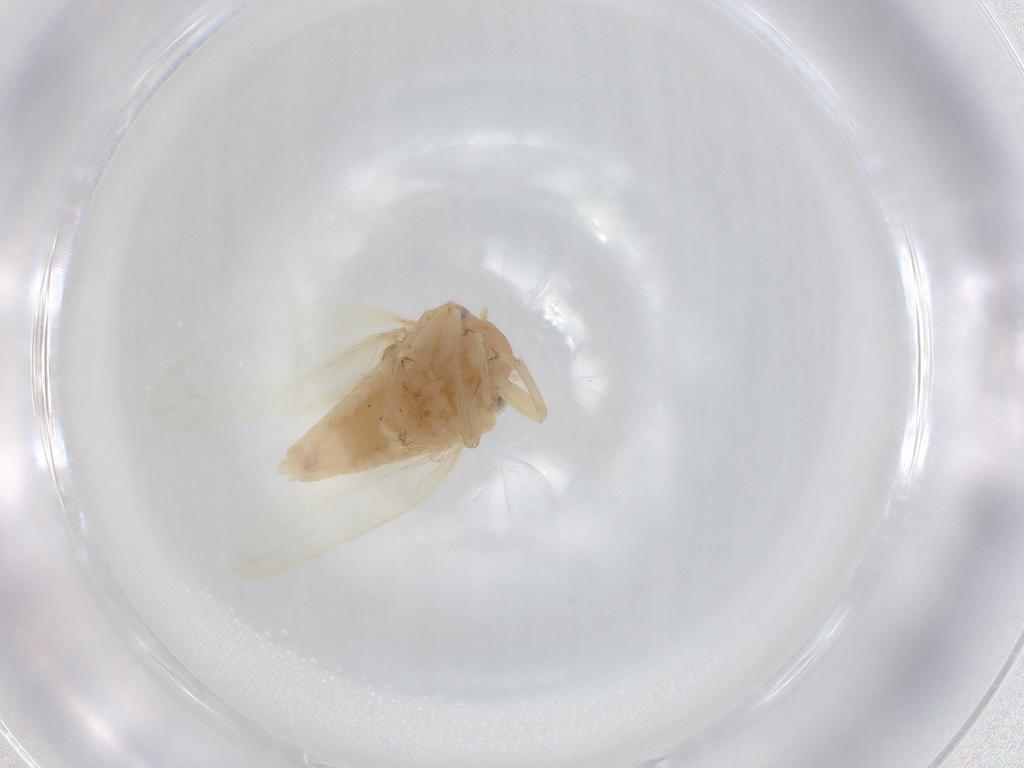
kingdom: Animalia
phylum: Arthropoda
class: Insecta
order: Hemiptera
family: Cicadellidae
